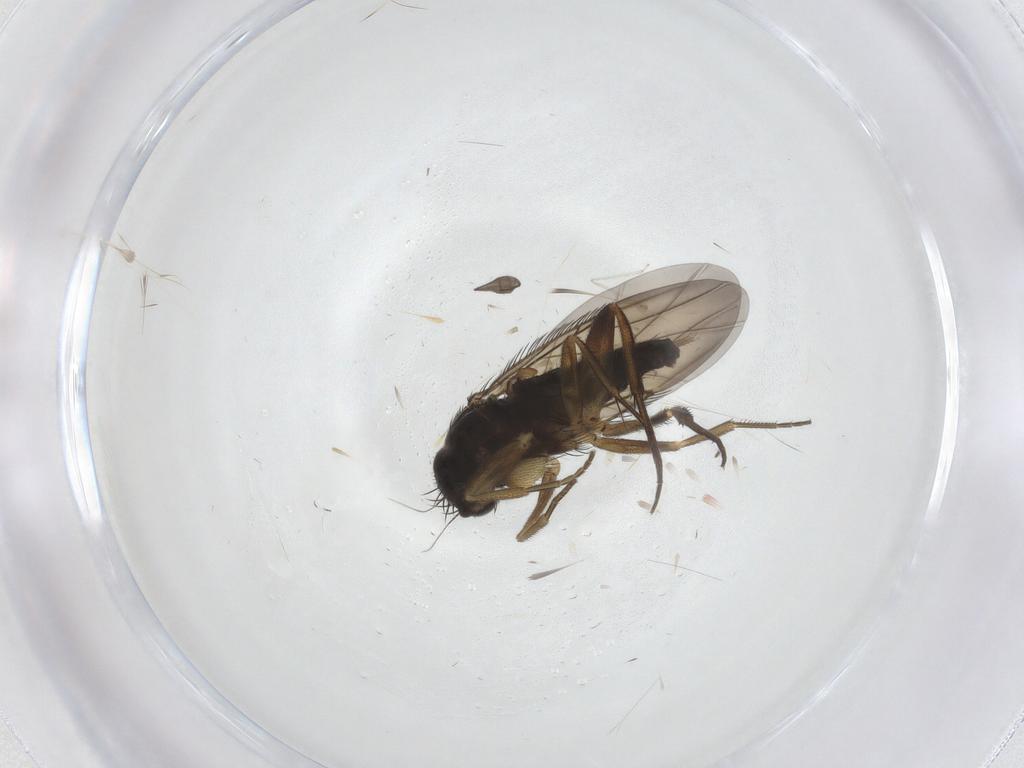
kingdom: Animalia
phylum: Arthropoda
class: Insecta
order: Diptera
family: Phoridae
